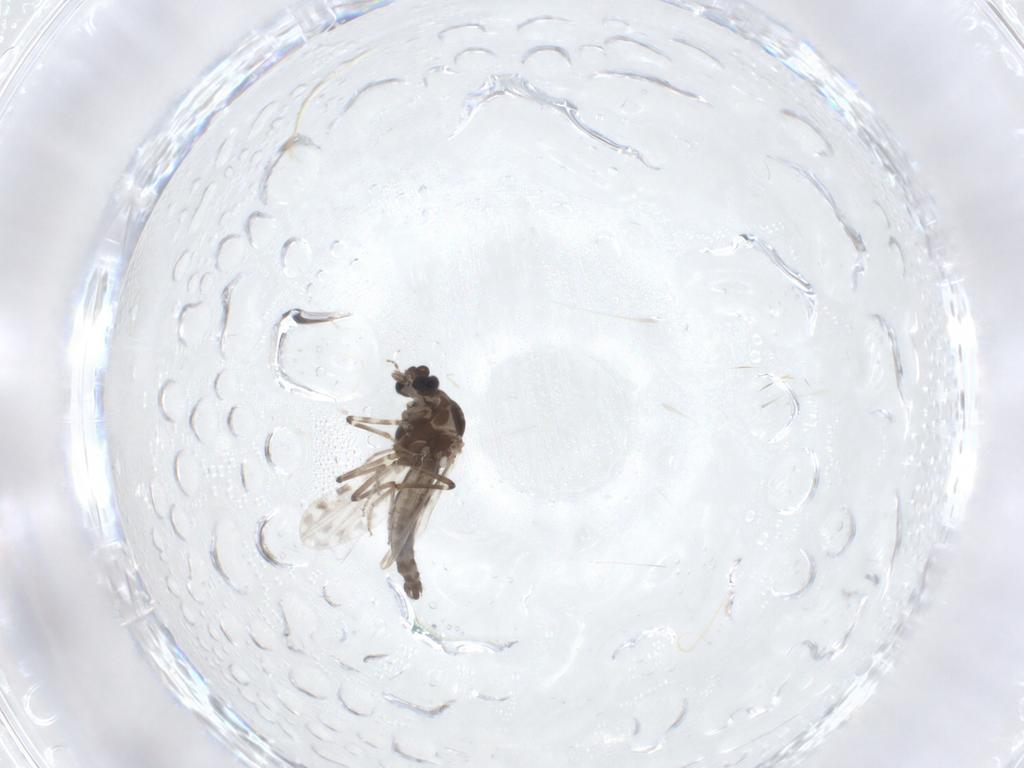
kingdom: Animalia
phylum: Arthropoda
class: Insecta
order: Diptera
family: Ceratopogonidae
